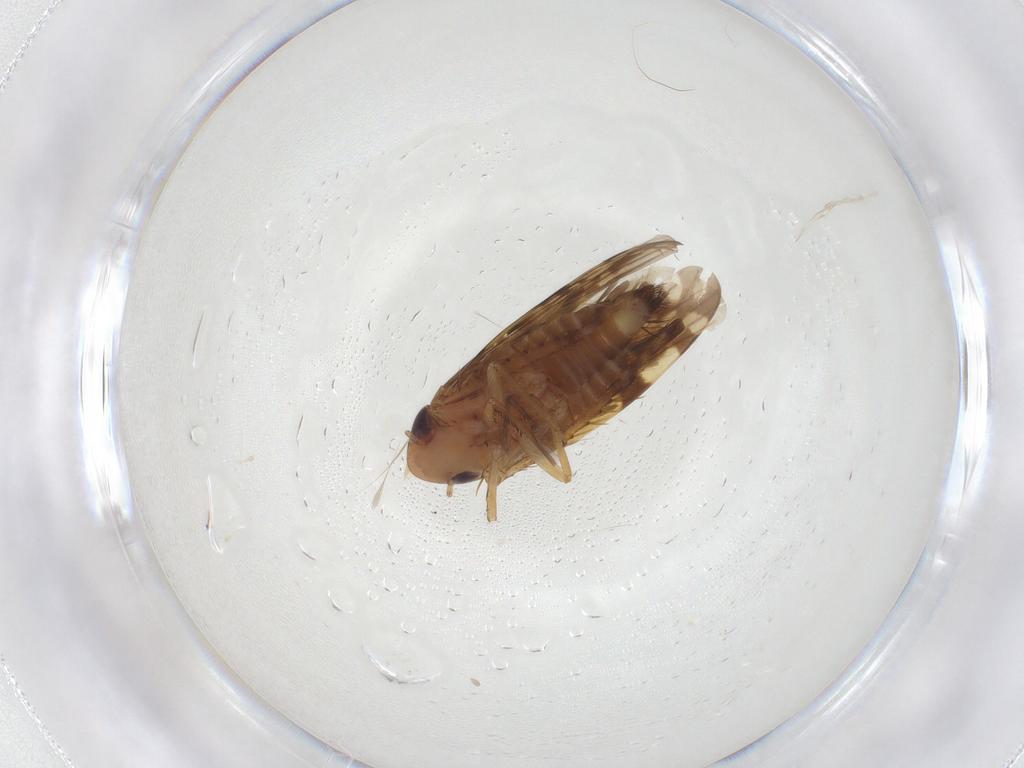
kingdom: Animalia
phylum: Arthropoda
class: Insecta
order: Hemiptera
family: Cicadellidae
